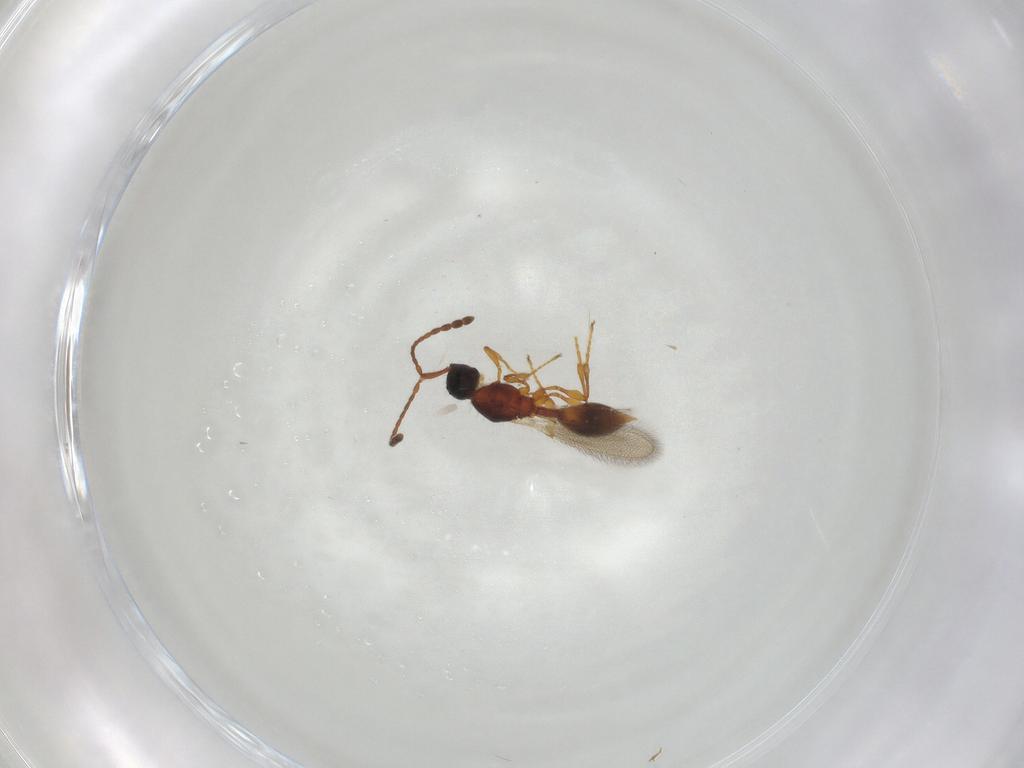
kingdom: Animalia
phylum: Arthropoda
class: Insecta
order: Hymenoptera
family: Diapriidae
